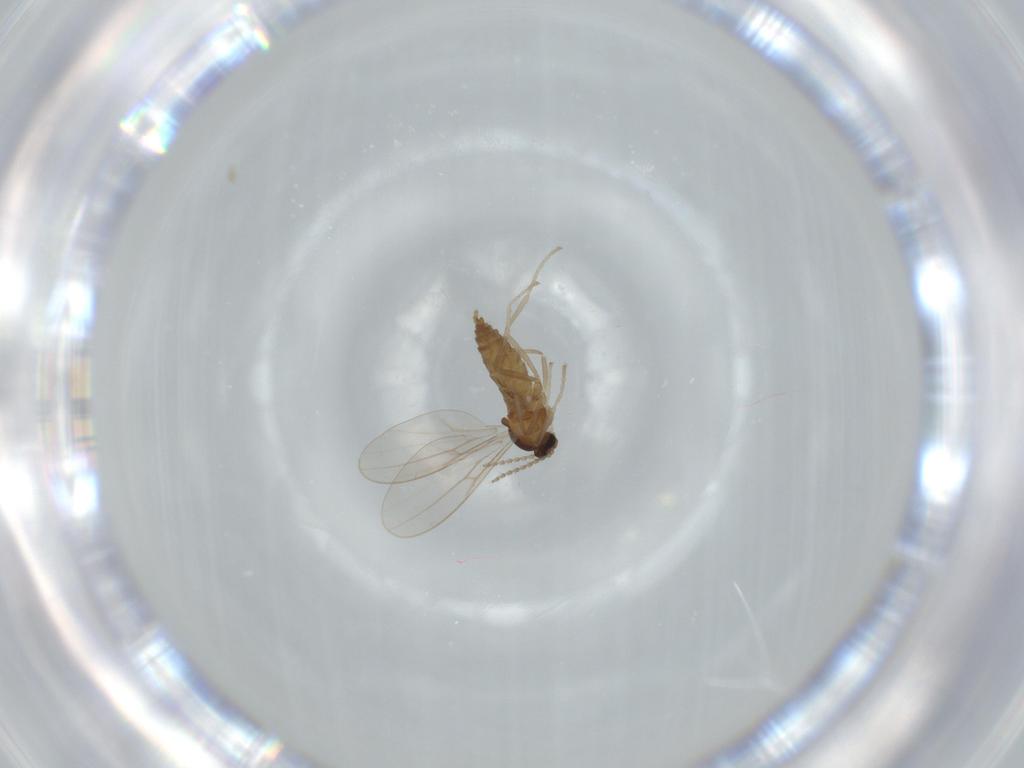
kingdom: Animalia
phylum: Arthropoda
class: Insecta
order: Diptera
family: Cecidomyiidae
